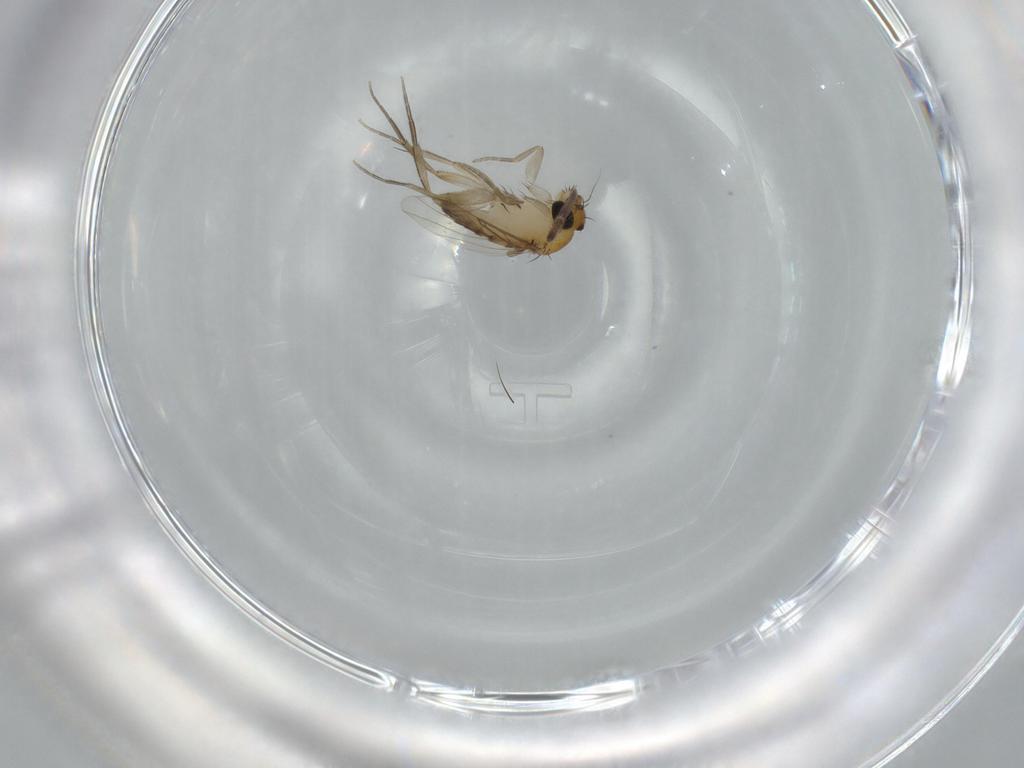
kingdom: Animalia
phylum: Arthropoda
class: Insecta
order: Diptera
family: Phoridae
